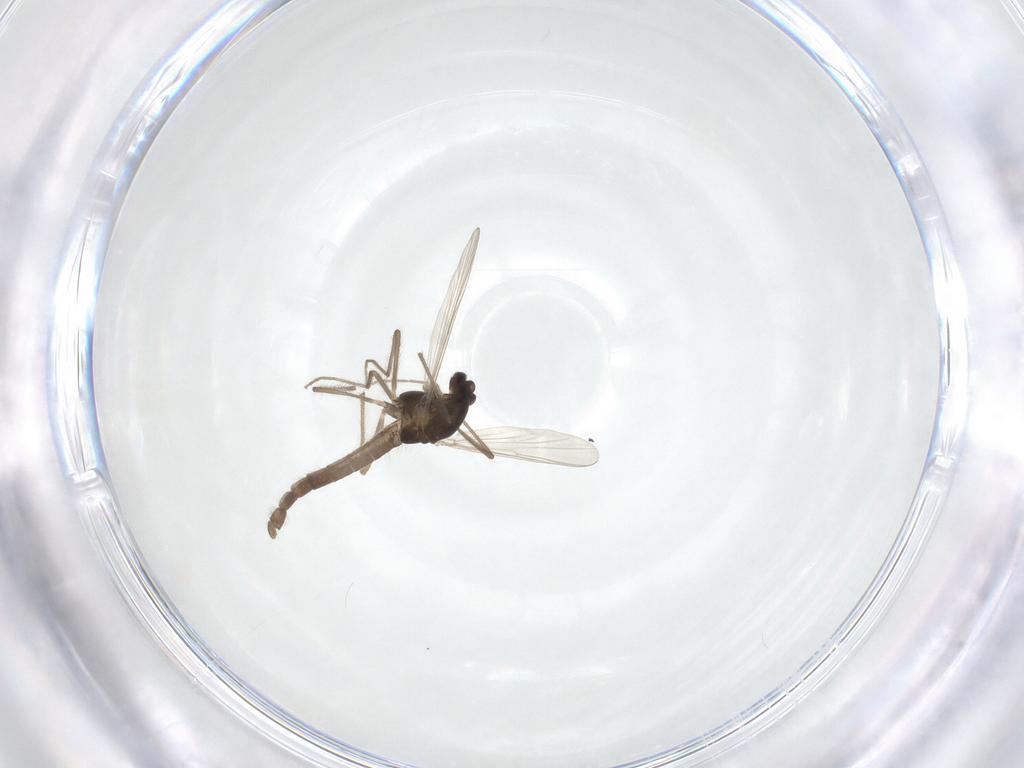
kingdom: Animalia
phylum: Arthropoda
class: Insecta
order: Diptera
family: Chironomidae
